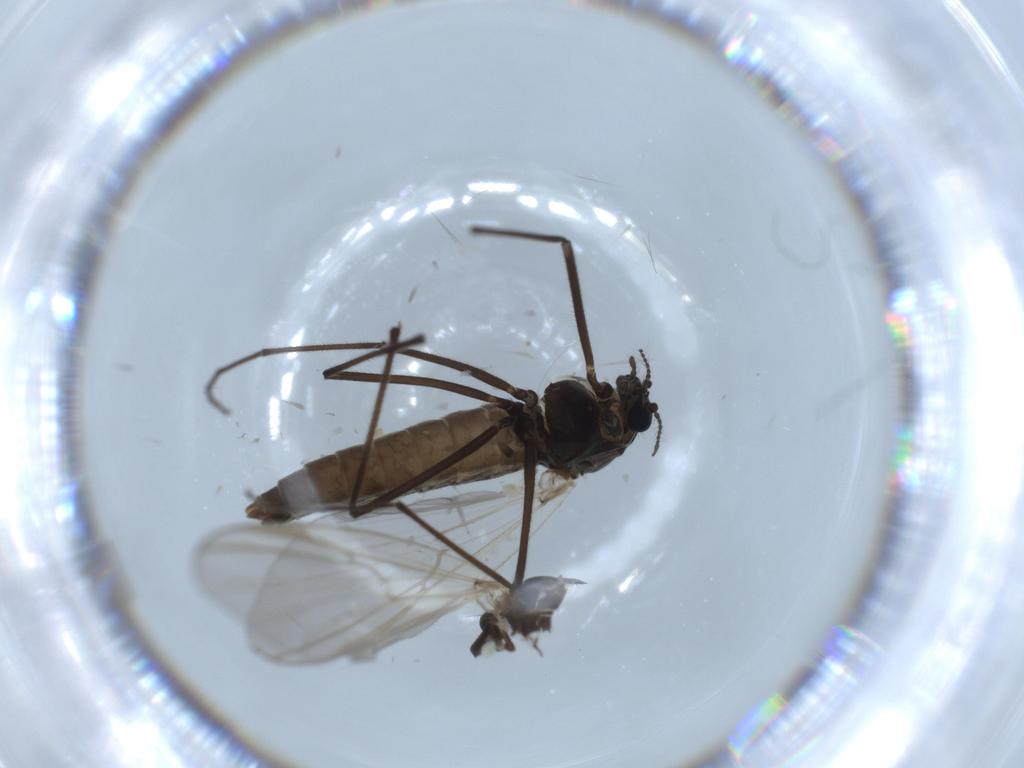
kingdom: Animalia
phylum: Arthropoda
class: Insecta
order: Diptera
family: Chironomidae
